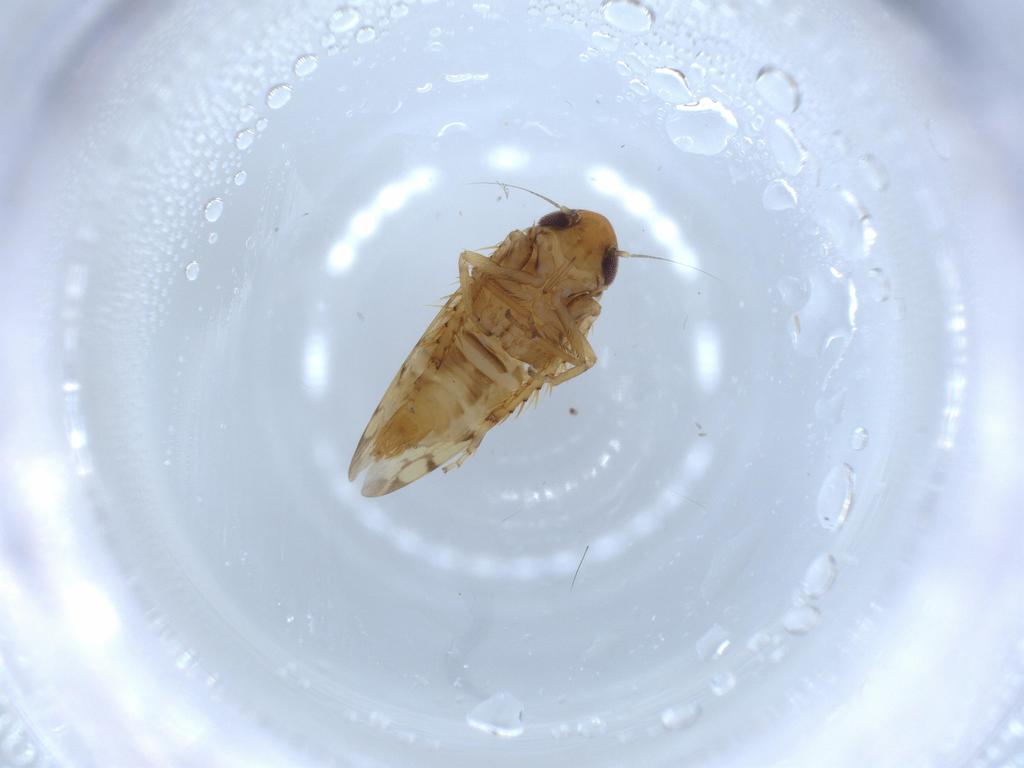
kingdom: Animalia
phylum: Arthropoda
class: Insecta
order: Hemiptera
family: Cicadellidae
